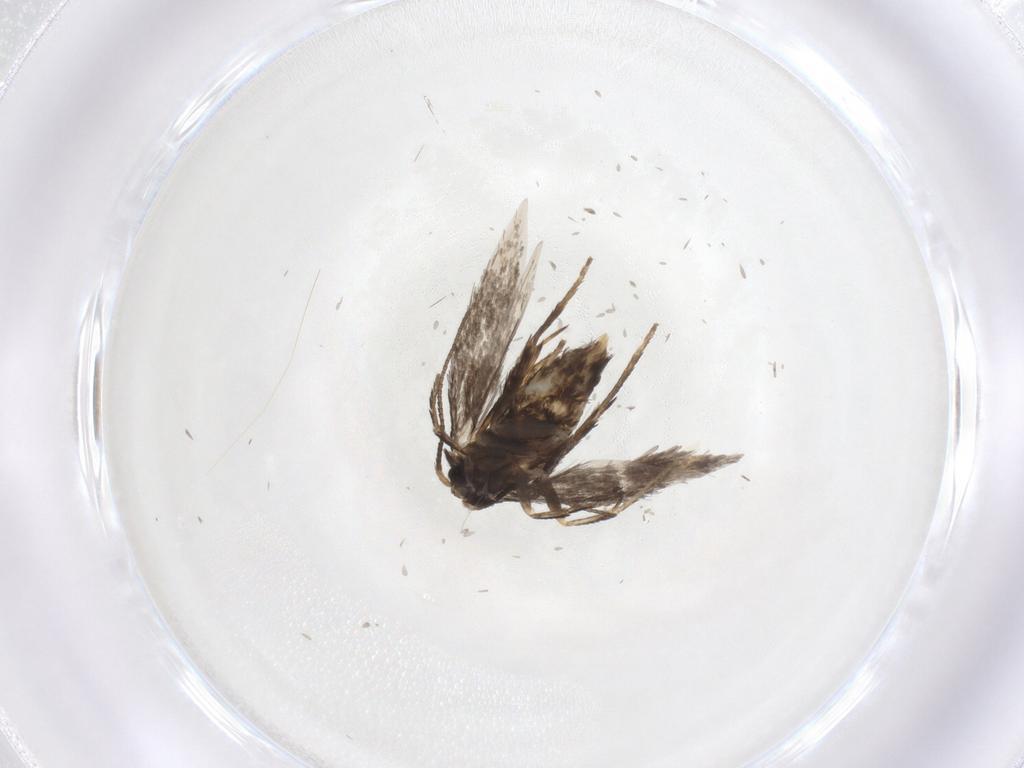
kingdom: Animalia
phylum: Arthropoda
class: Insecta
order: Lepidoptera
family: Nepticulidae
